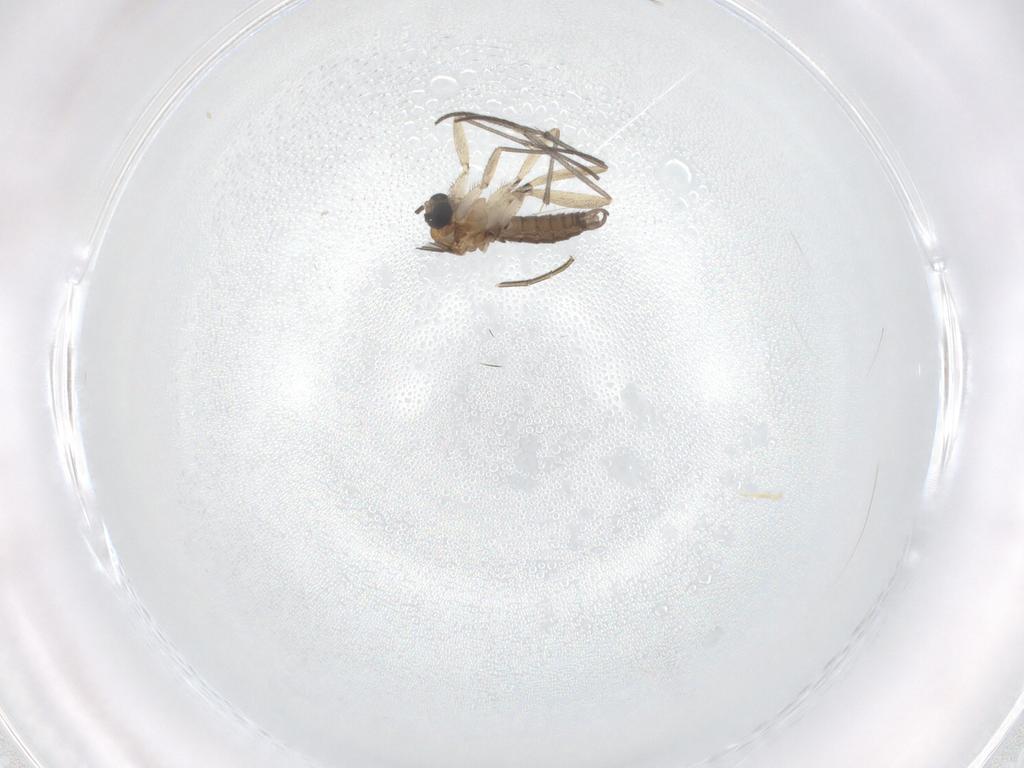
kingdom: Animalia
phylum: Arthropoda
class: Insecta
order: Diptera
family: Sciaridae
